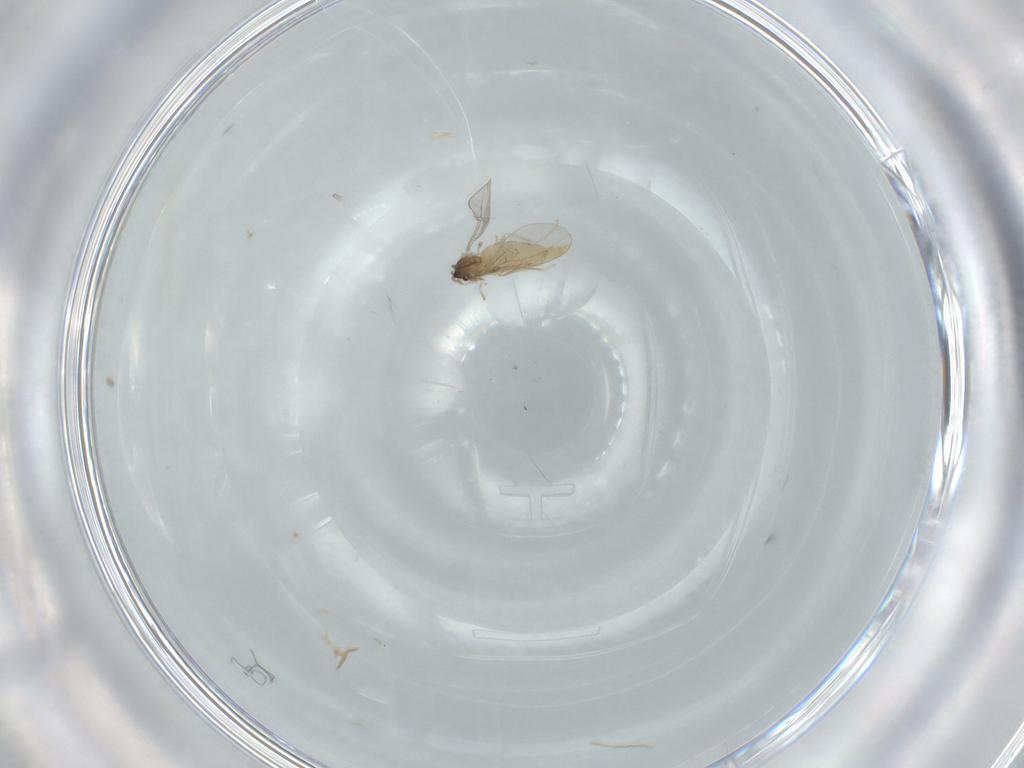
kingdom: Animalia
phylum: Arthropoda
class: Insecta
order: Diptera
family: Cecidomyiidae
